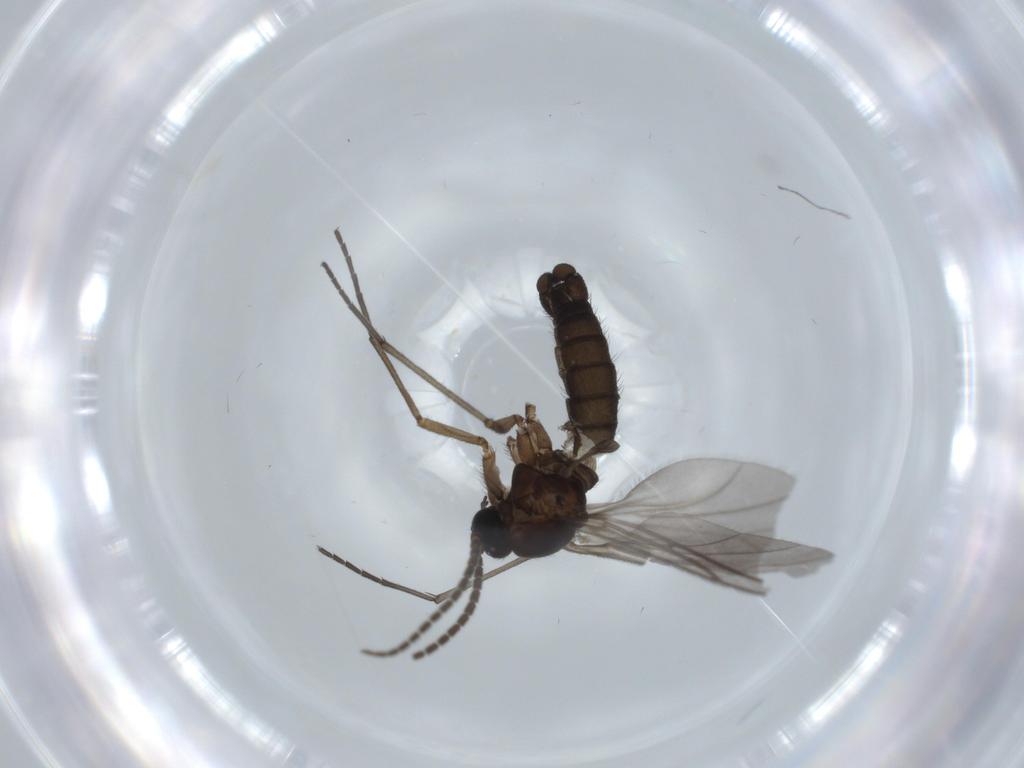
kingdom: Animalia
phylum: Arthropoda
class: Insecta
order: Diptera
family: Sciaridae
